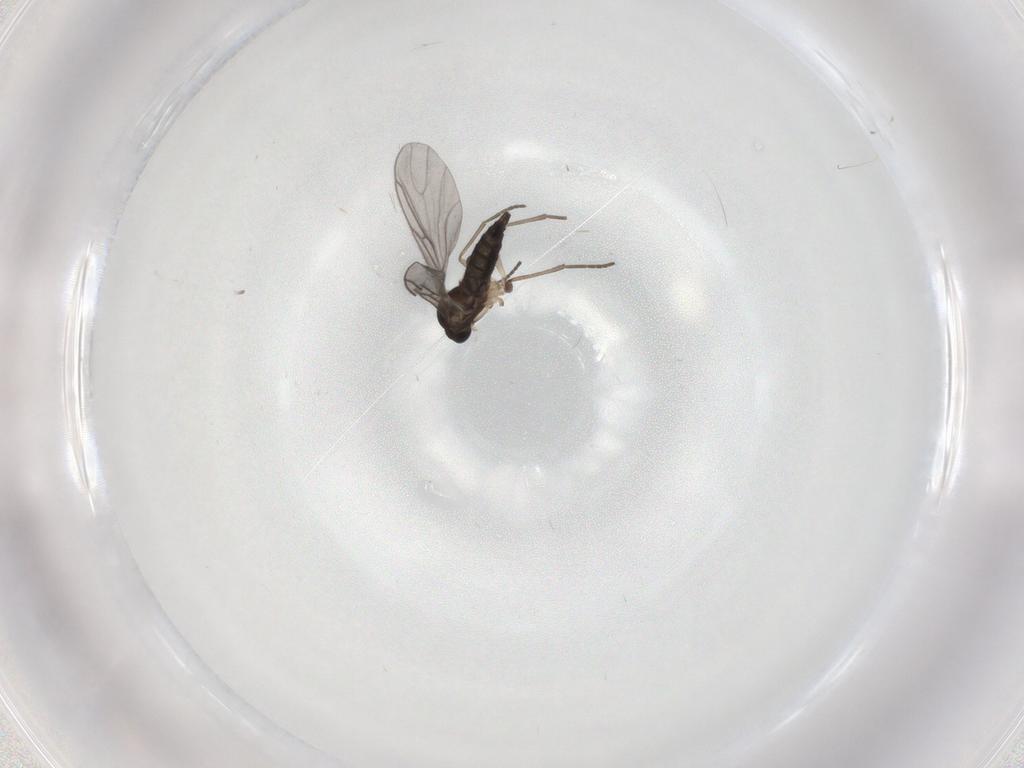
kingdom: Animalia
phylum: Arthropoda
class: Insecta
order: Diptera
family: Sciaridae
